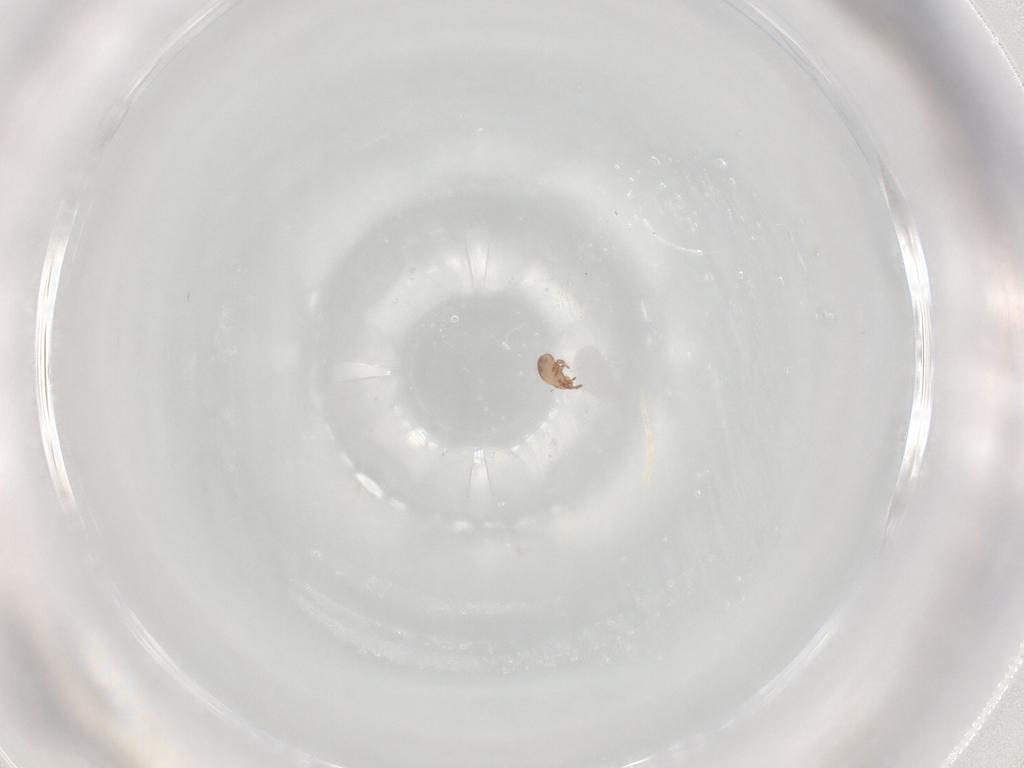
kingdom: Animalia
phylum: Arthropoda
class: Arachnida
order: Sarcoptiformes
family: Eremaeidae
